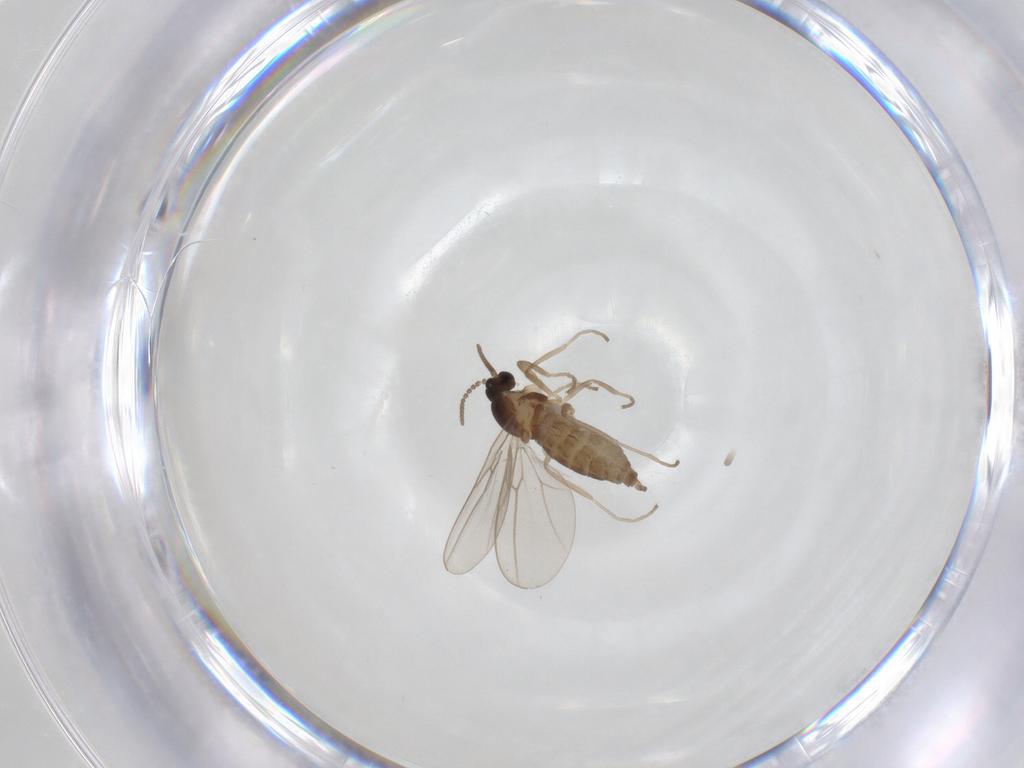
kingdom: Animalia
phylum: Arthropoda
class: Insecta
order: Diptera
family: Cecidomyiidae
